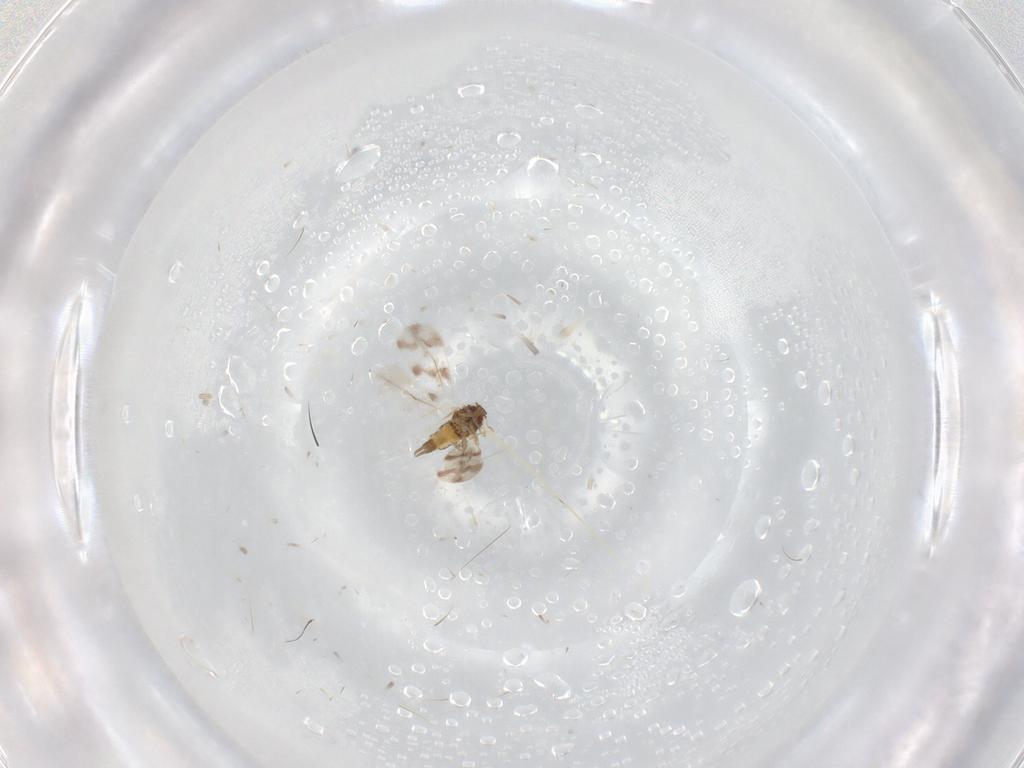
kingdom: Animalia
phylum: Arthropoda
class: Insecta
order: Hemiptera
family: Aleyrodidae
